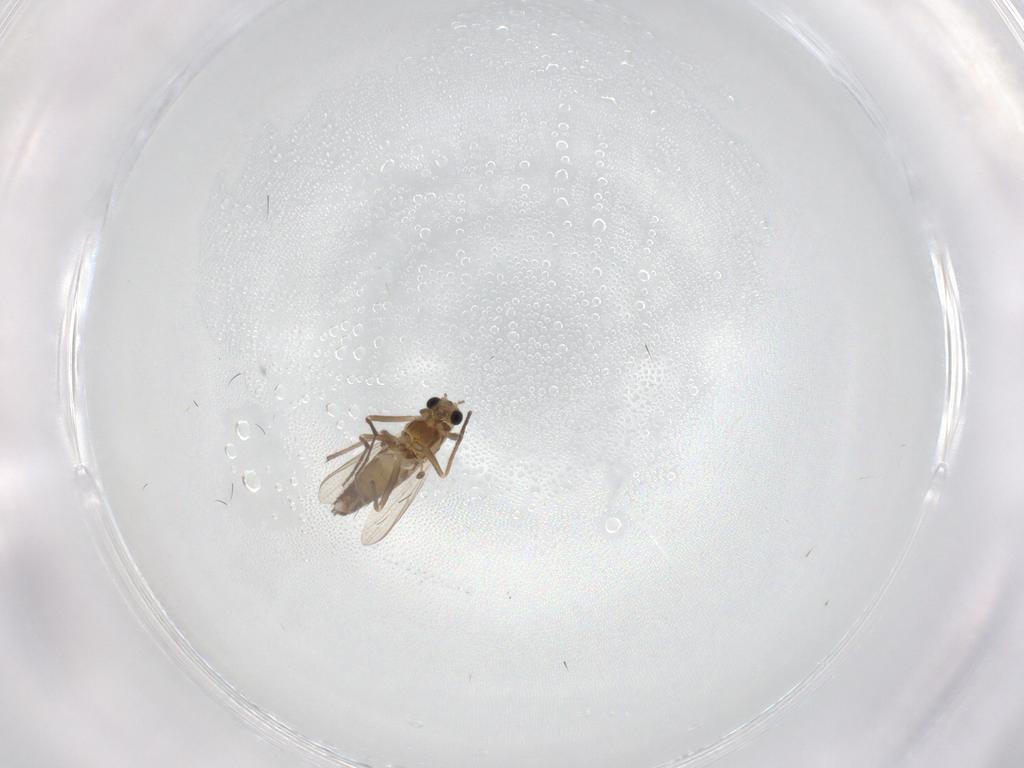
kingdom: Animalia
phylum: Arthropoda
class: Insecta
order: Diptera
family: Chironomidae
